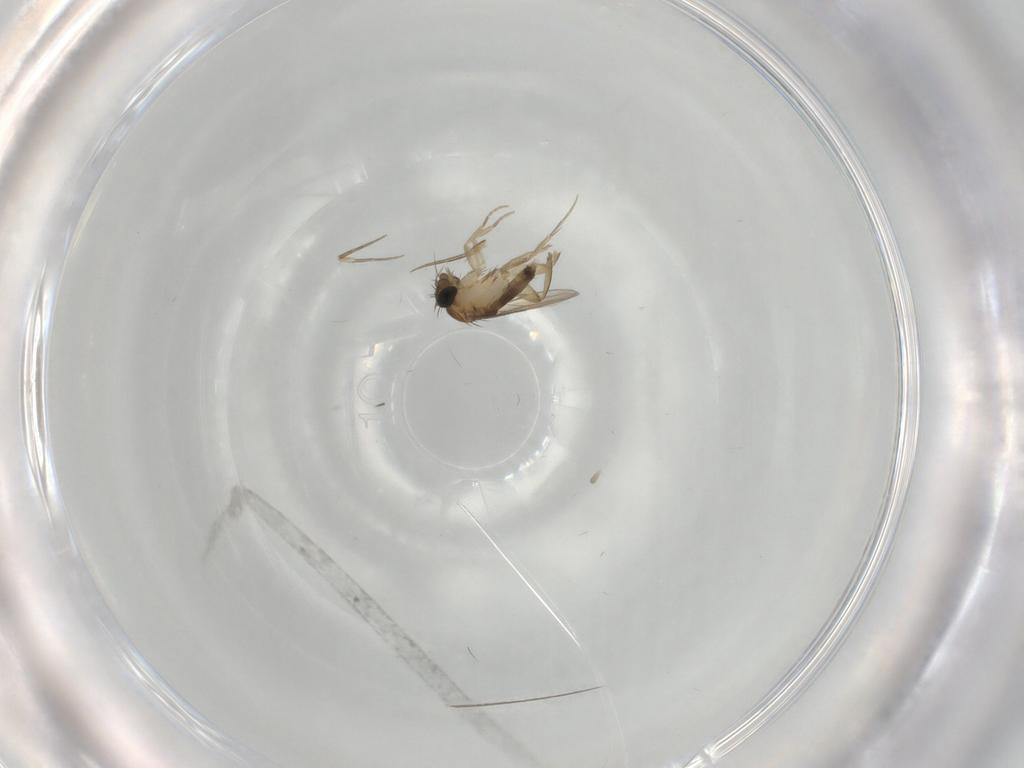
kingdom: Animalia
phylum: Arthropoda
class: Insecta
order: Diptera
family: Phoridae
